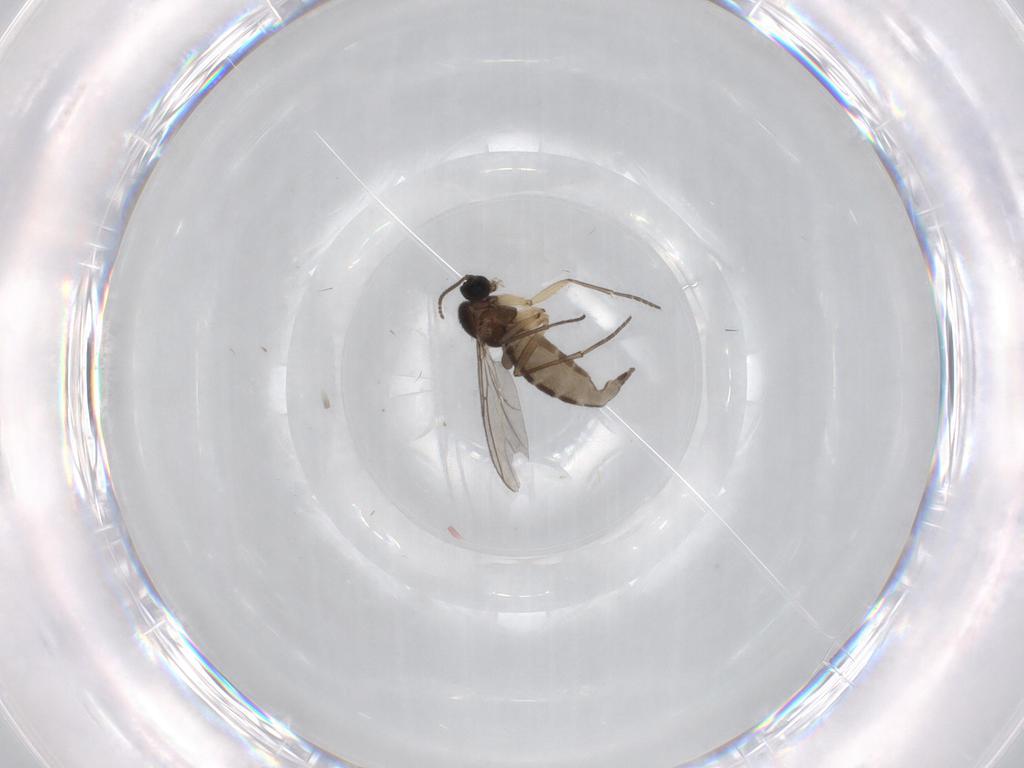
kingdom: Animalia
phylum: Arthropoda
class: Insecta
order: Diptera
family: Sciaridae
